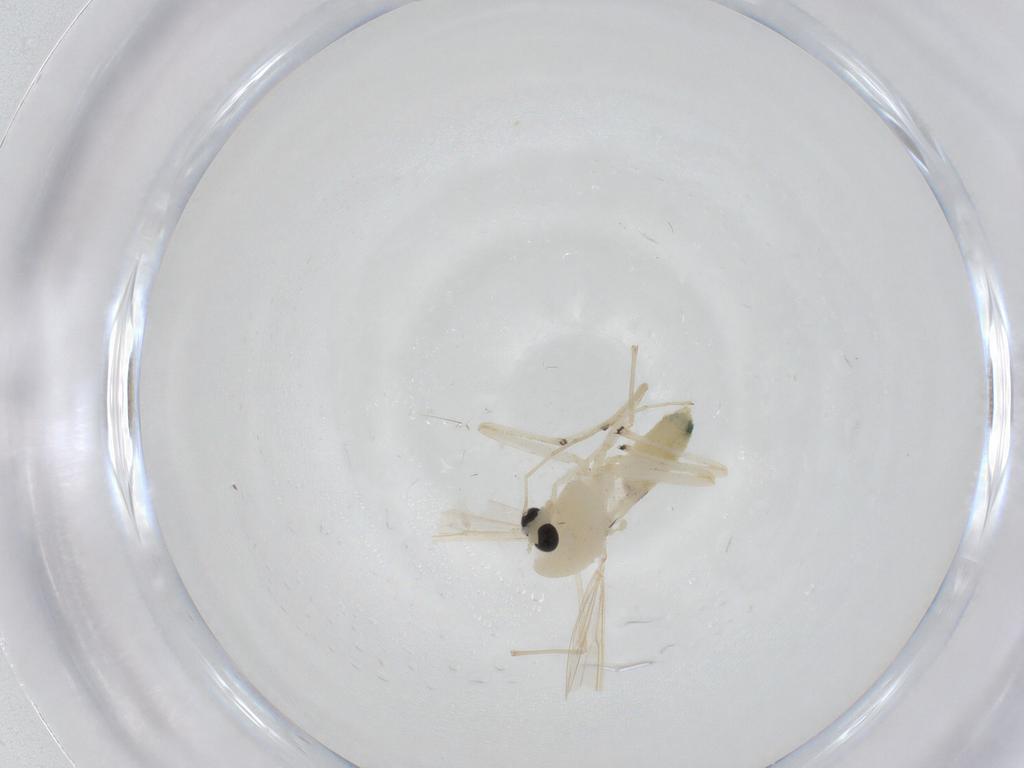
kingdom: Animalia
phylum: Arthropoda
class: Insecta
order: Diptera
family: Chironomidae
